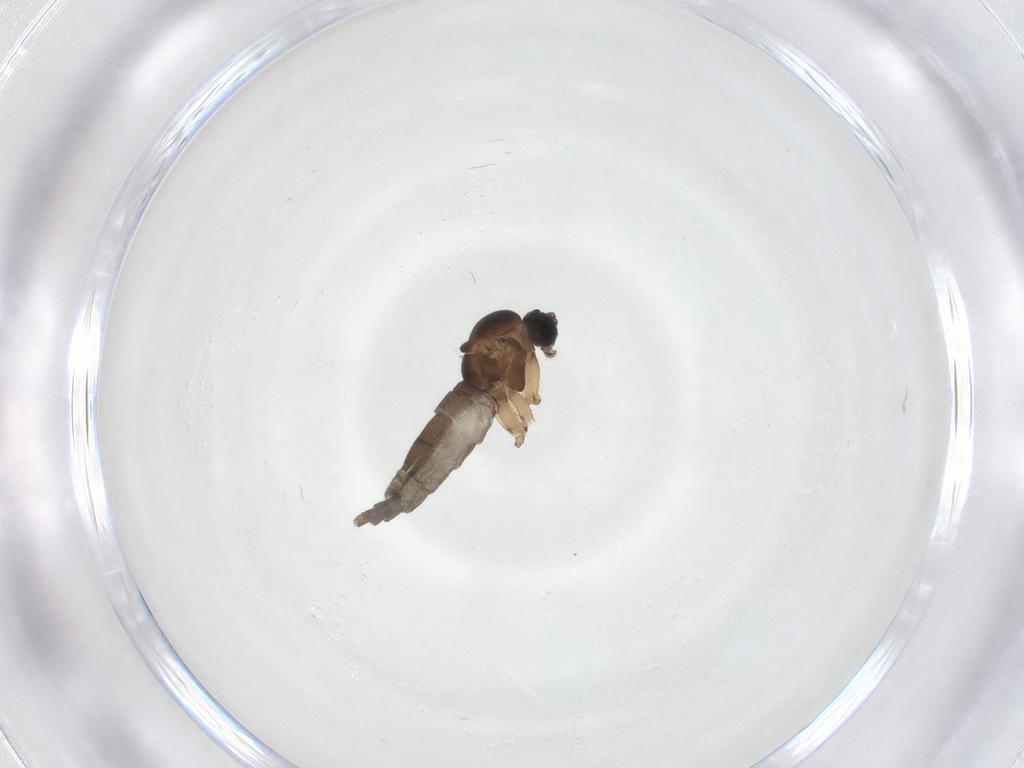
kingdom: Animalia
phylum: Arthropoda
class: Insecta
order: Diptera
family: Sciaridae
